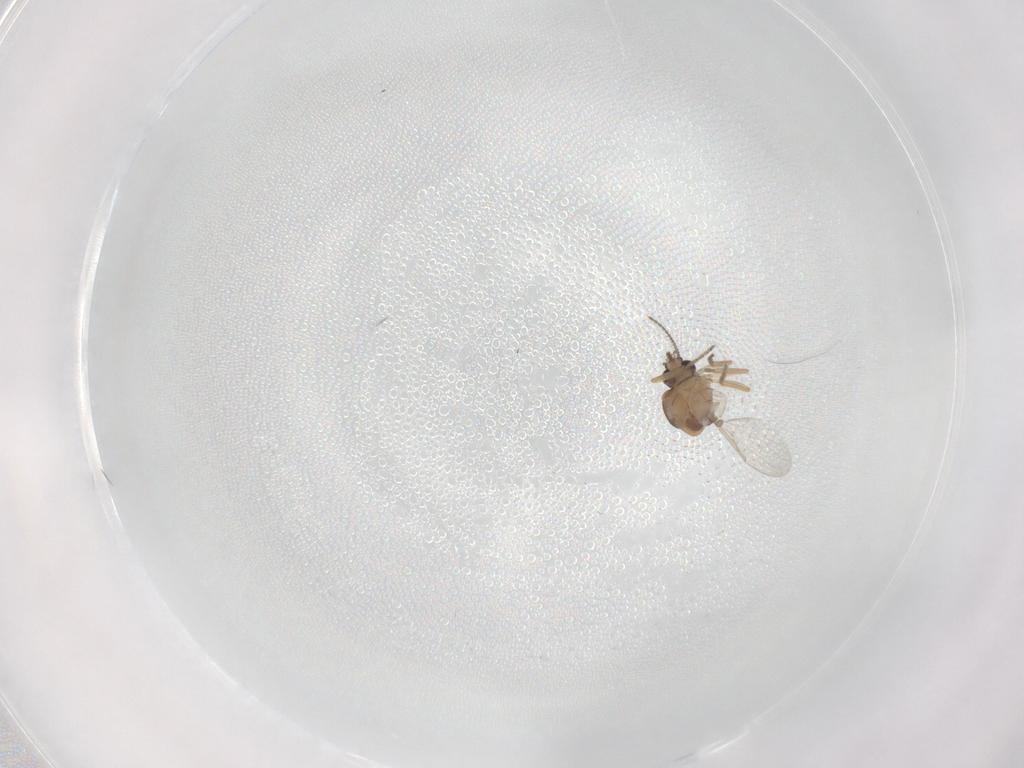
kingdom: Animalia
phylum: Arthropoda
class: Insecta
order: Diptera
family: Ceratopogonidae
